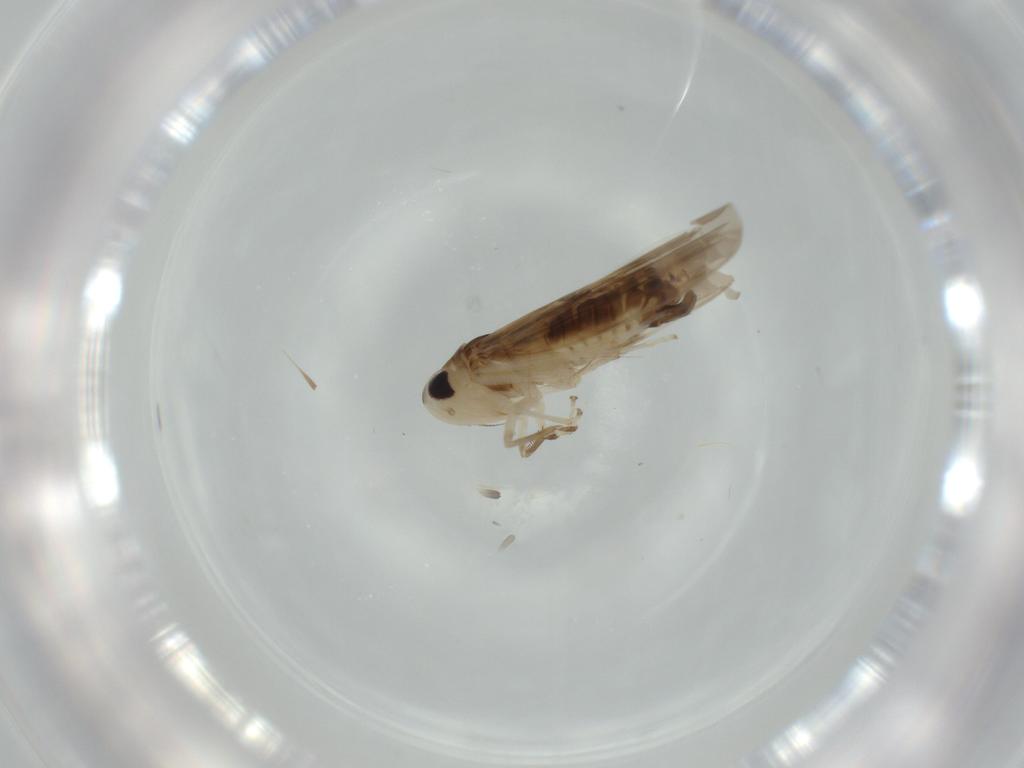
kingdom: Animalia
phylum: Arthropoda
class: Insecta
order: Hemiptera
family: Cicadellidae
